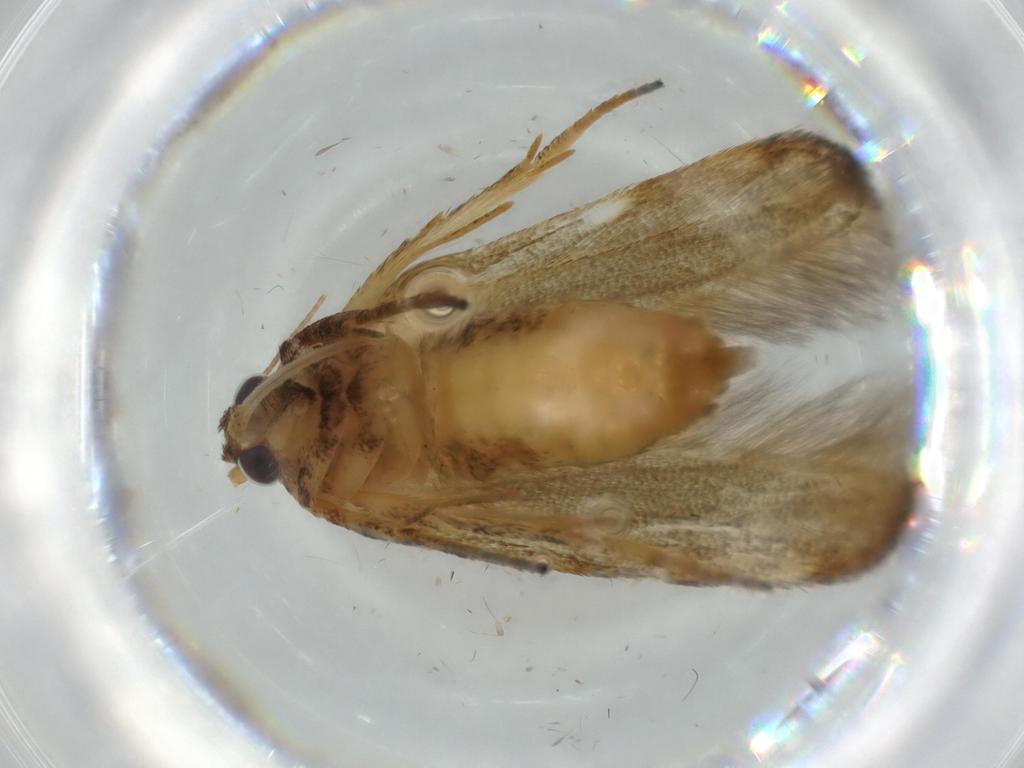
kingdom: Animalia
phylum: Arthropoda
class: Insecta
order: Lepidoptera
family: Blastobasidae
